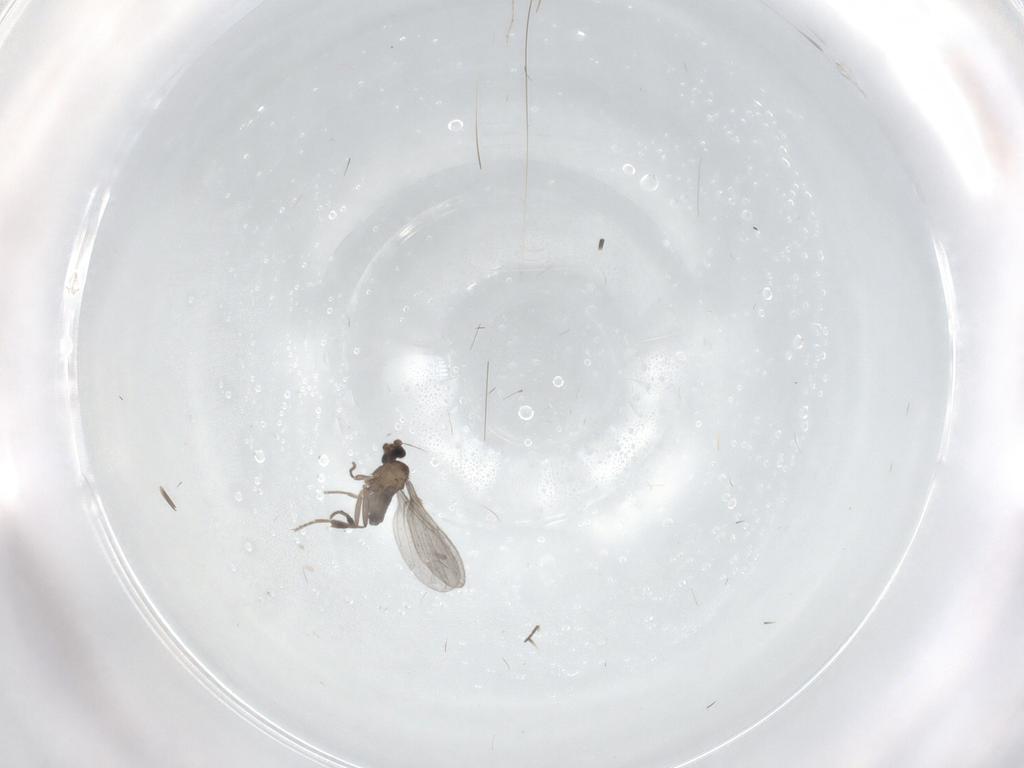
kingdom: Animalia
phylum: Arthropoda
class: Insecta
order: Diptera
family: Phoridae
